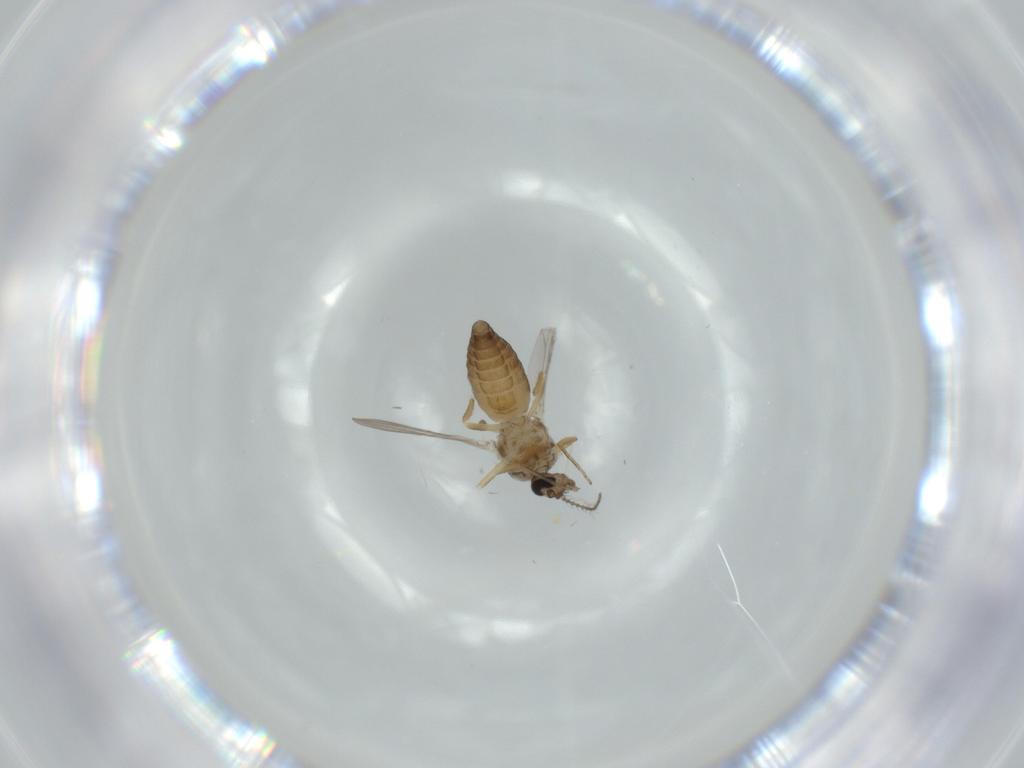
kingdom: Animalia
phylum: Arthropoda
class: Insecta
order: Diptera
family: Ceratopogonidae
